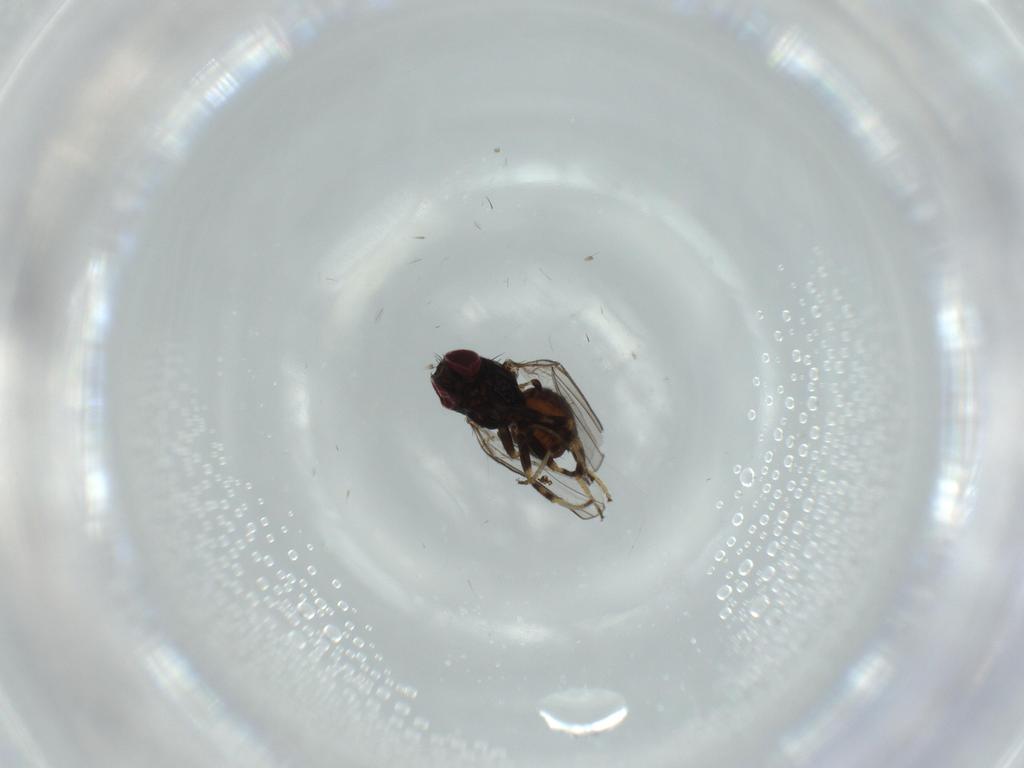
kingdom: Animalia
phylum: Arthropoda
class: Insecta
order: Diptera
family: Chloropidae
